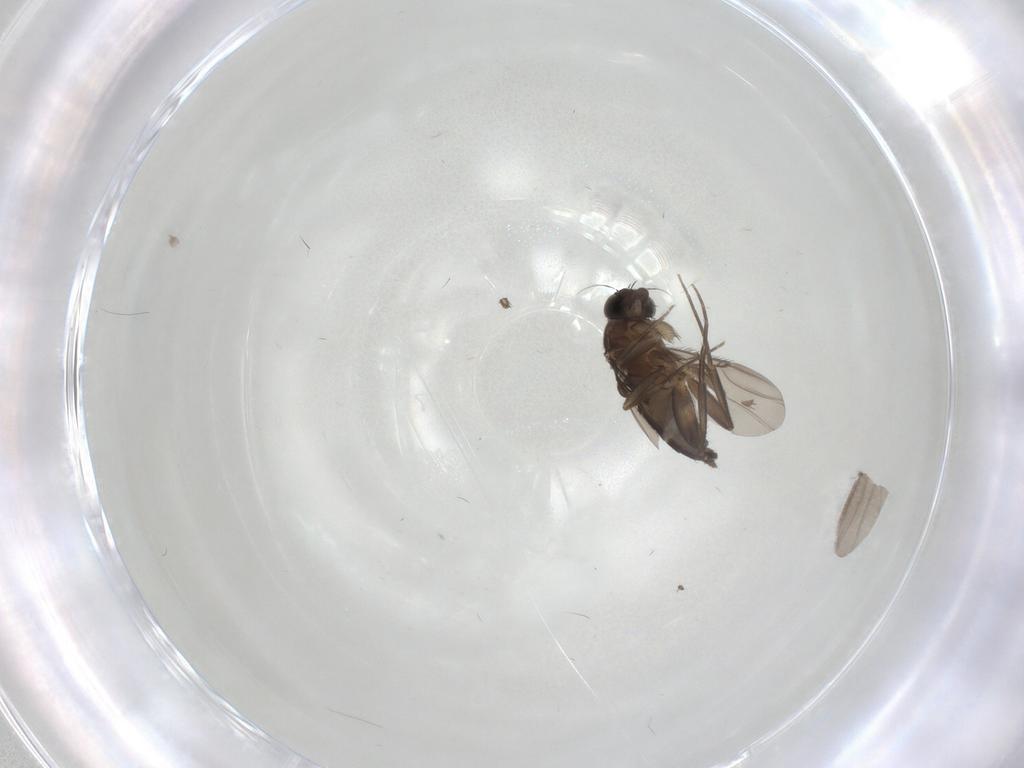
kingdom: Animalia
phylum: Arthropoda
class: Insecta
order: Diptera
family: Phoridae
